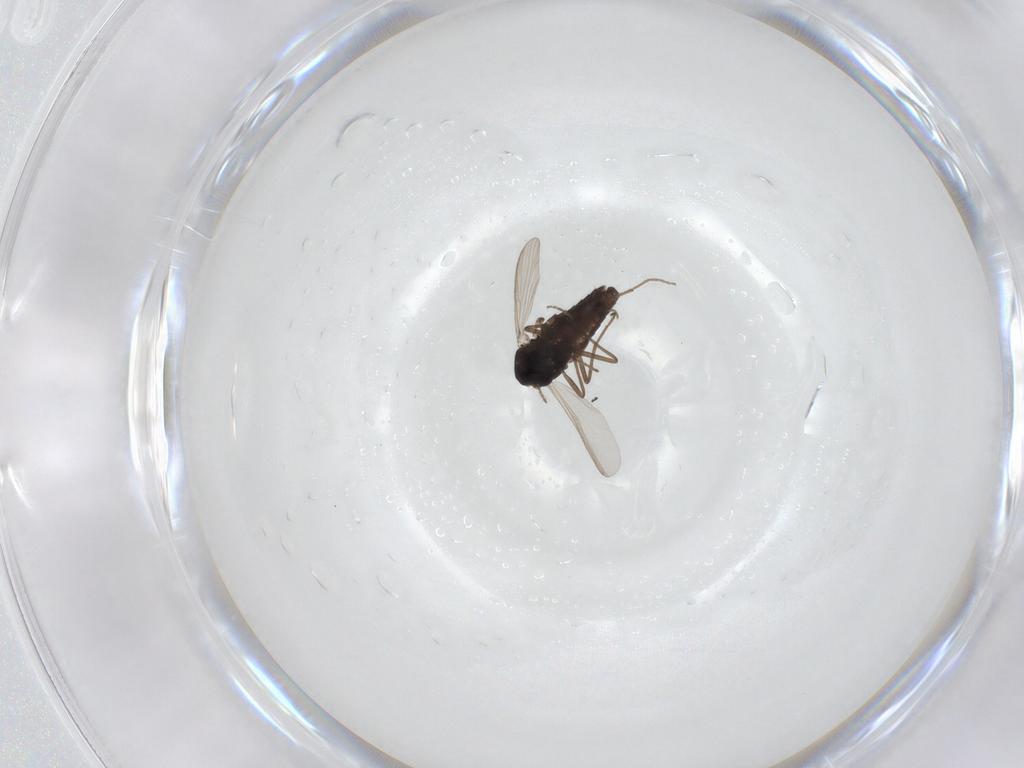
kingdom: Animalia
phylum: Arthropoda
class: Insecta
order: Diptera
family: Chironomidae
